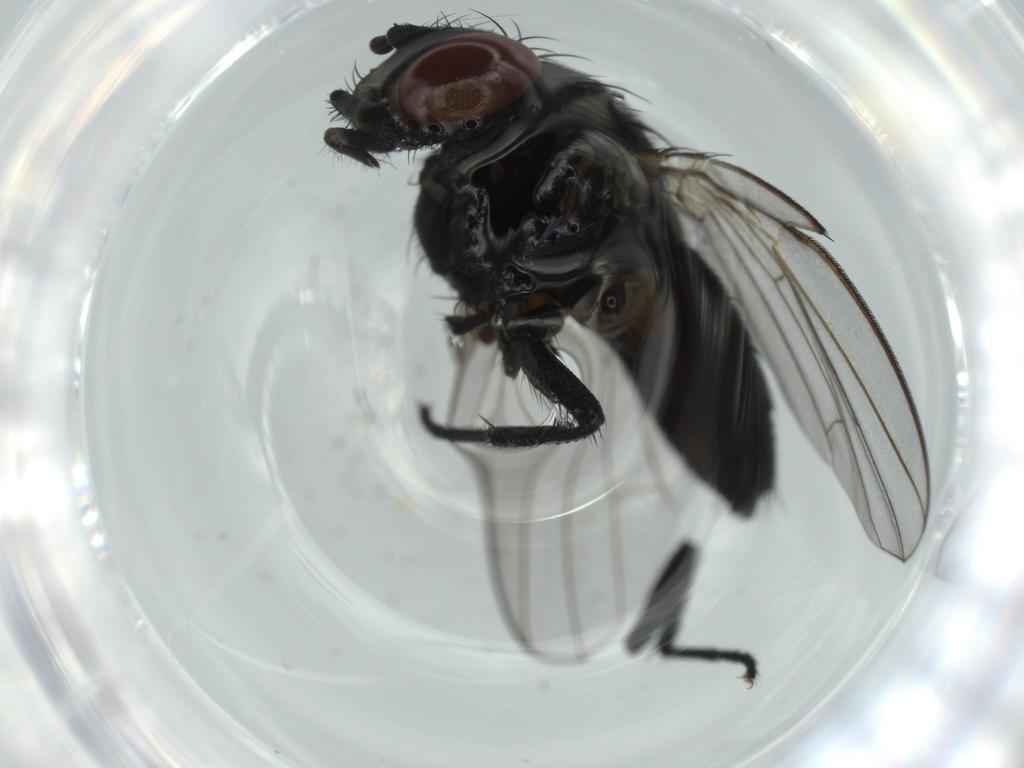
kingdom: Animalia
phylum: Arthropoda
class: Insecta
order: Diptera
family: Milichiidae
